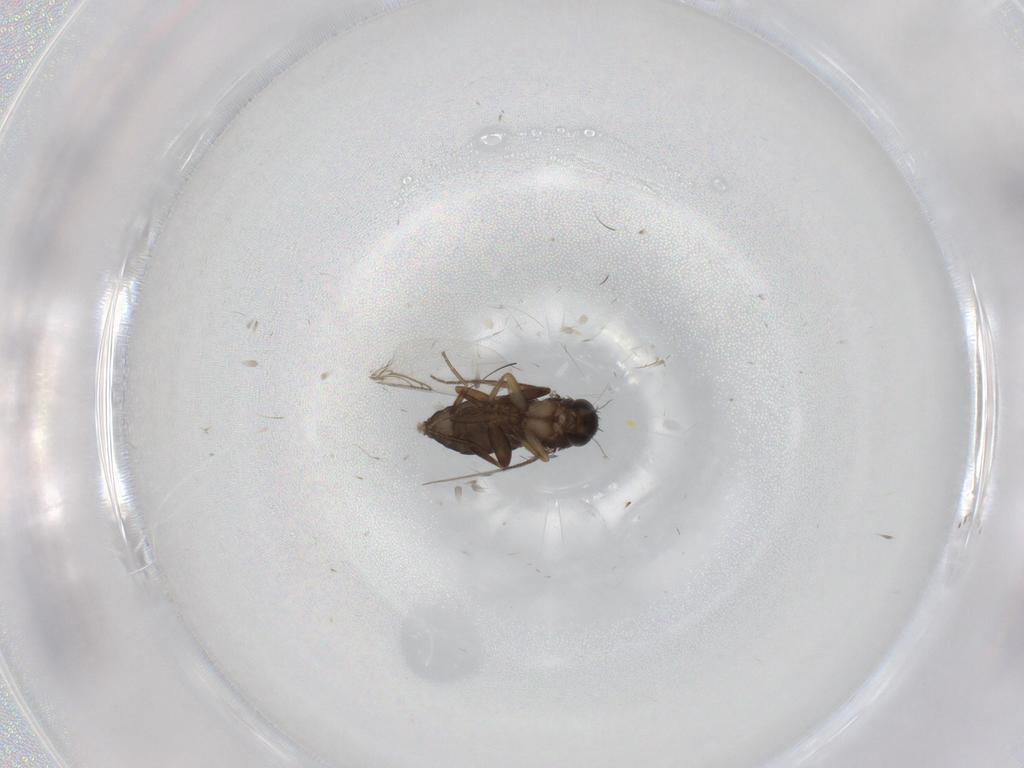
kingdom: Animalia
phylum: Arthropoda
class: Insecta
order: Diptera
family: Phoridae
